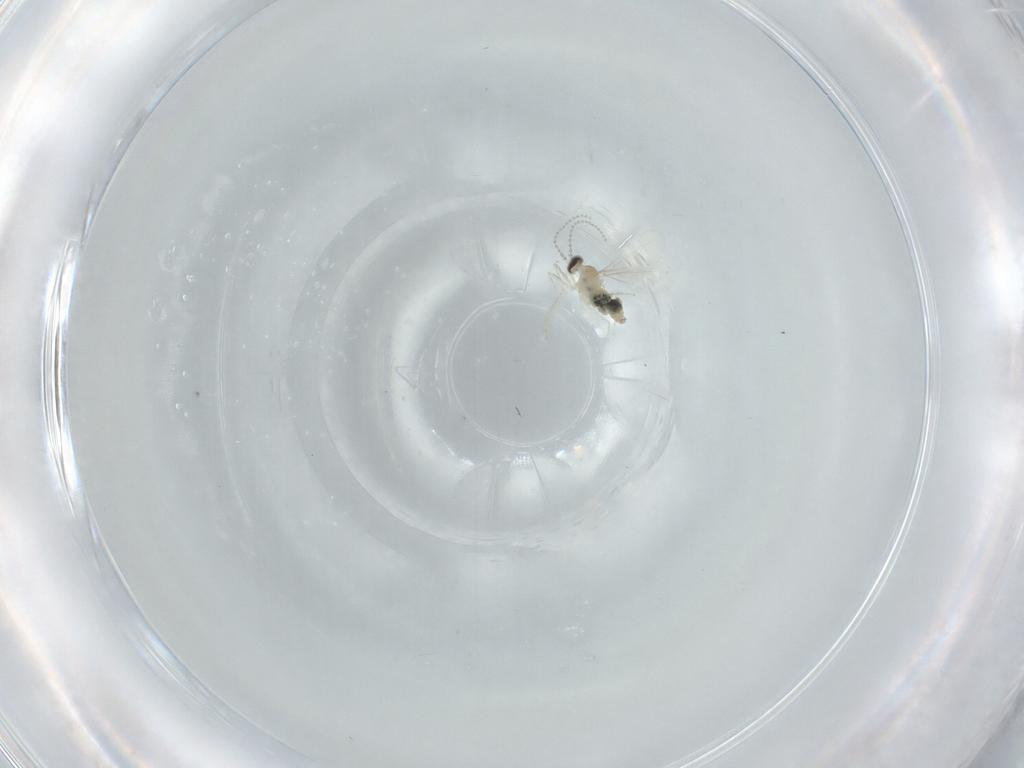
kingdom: Animalia
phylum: Arthropoda
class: Insecta
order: Diptera
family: Cecidomyiidae
